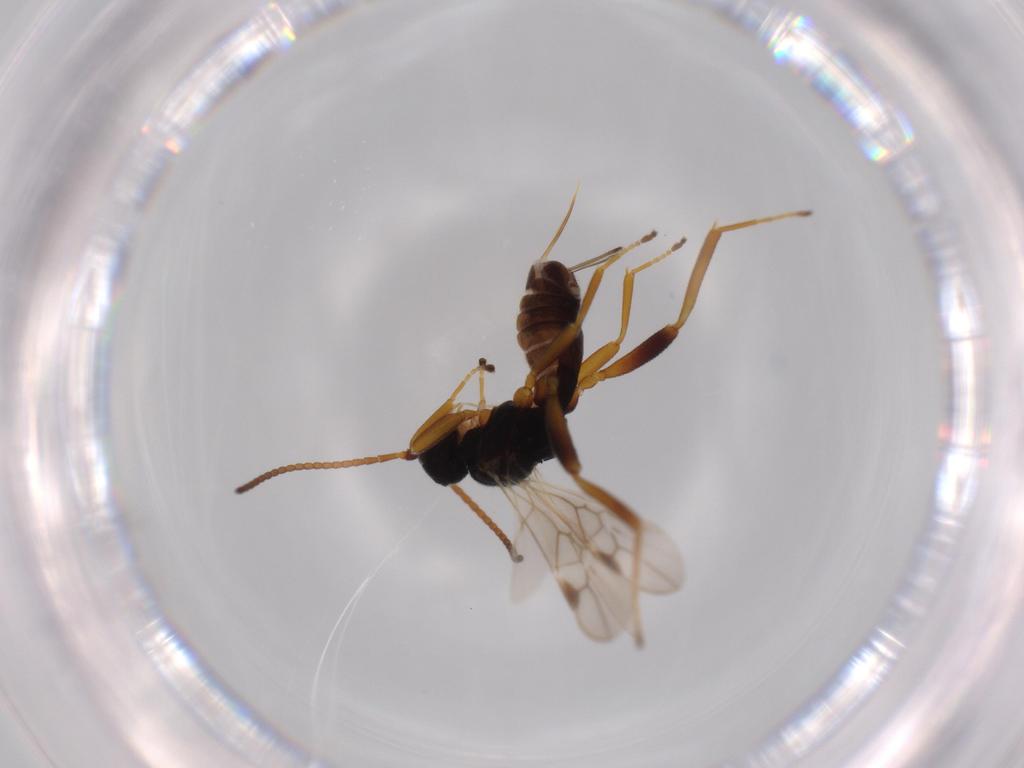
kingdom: Animalia
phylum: Arthropoda
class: Insecta
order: Hymenoptera
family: Braconidae
